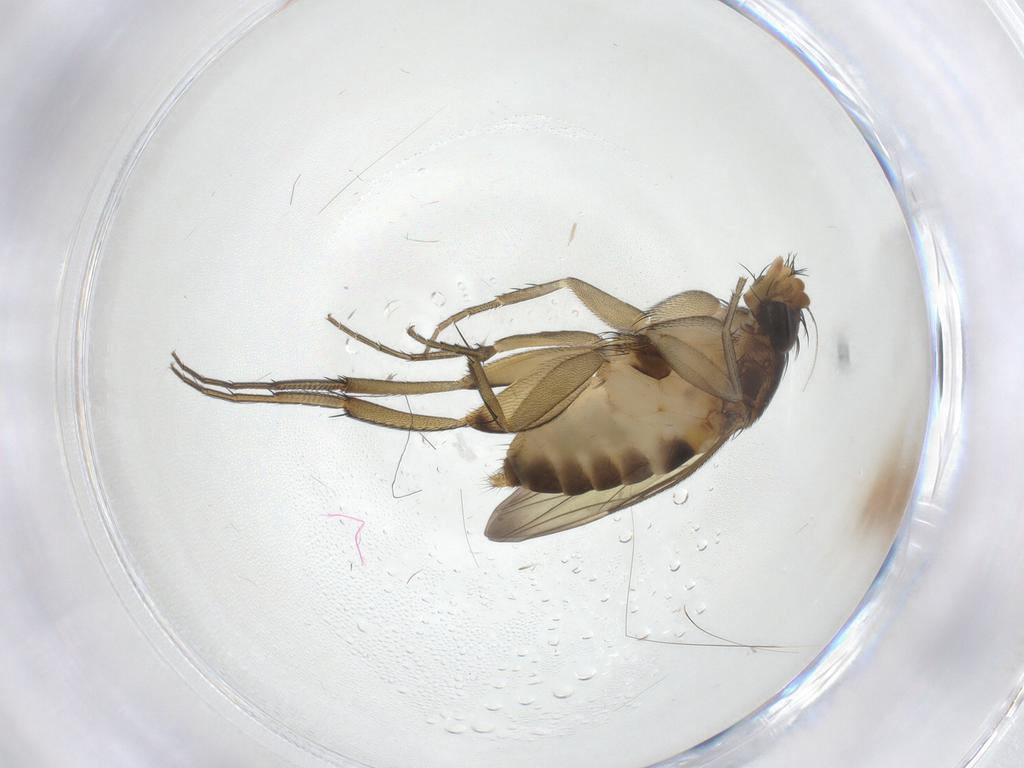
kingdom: Animalia
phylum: Arthropoda
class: Insecta
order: Diptera
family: Phoridae
